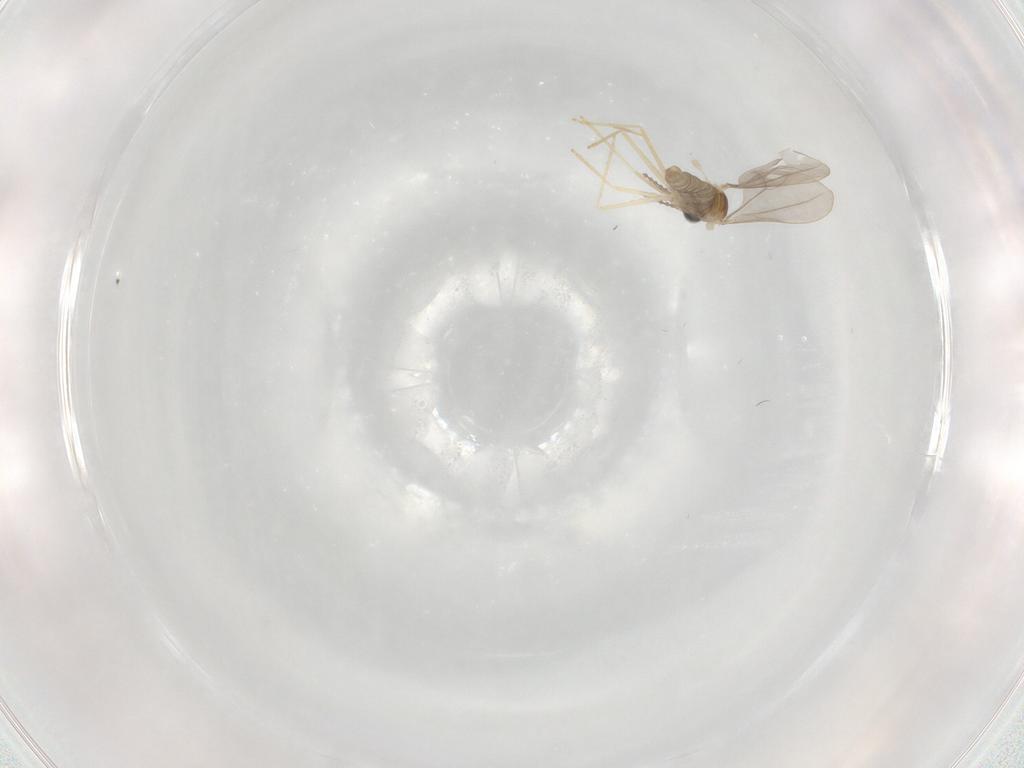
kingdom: Animalia
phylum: Arthropoda
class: Insecta
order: Diptera
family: Cecidomyiidae
